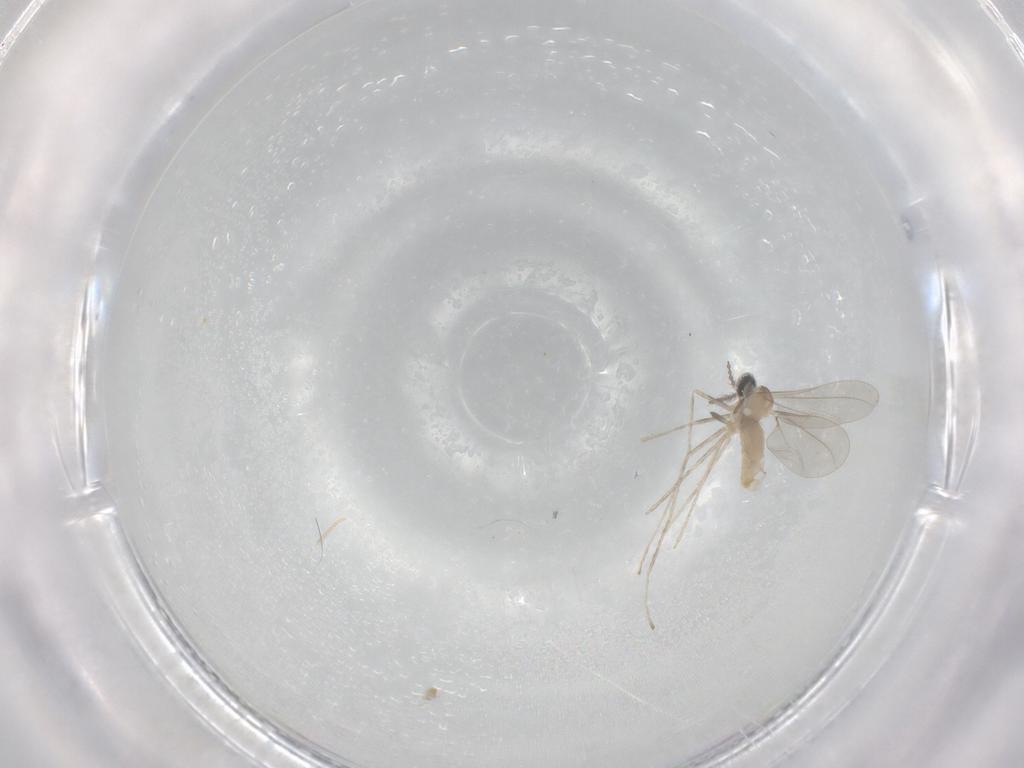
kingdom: Animalia
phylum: Arthropoda
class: Insecta
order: Diptera
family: Cecidomyiidae
